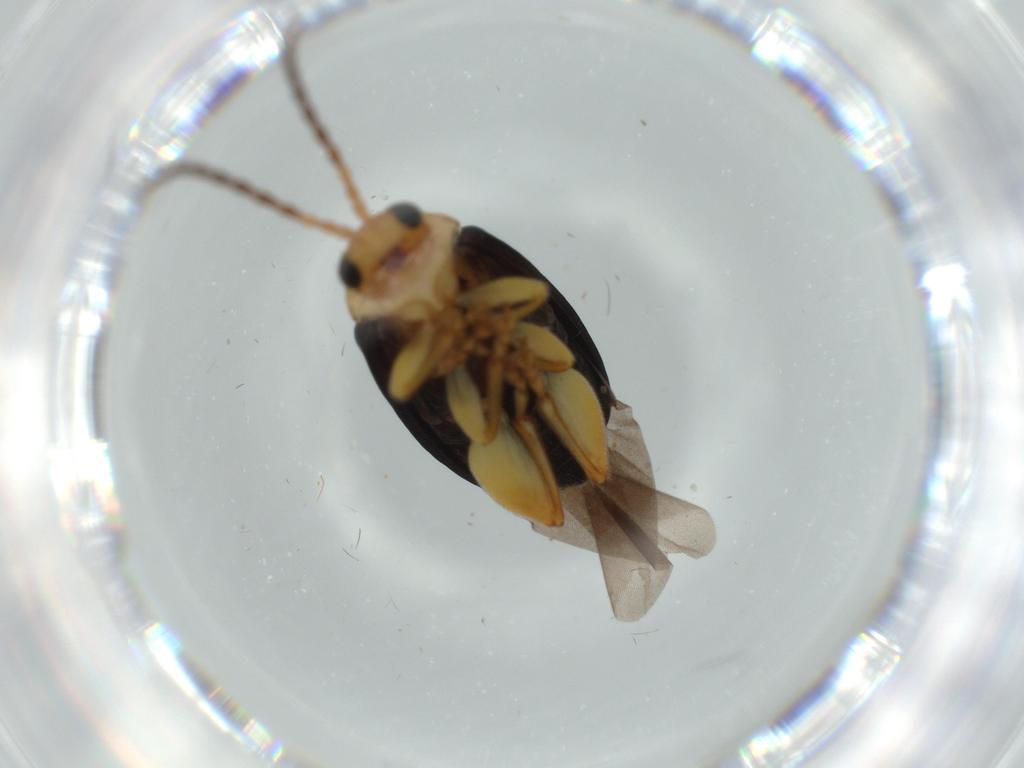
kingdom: Animalia
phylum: Arthropoda
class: Insecta
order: Coleoptera
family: Chrysomelidae
